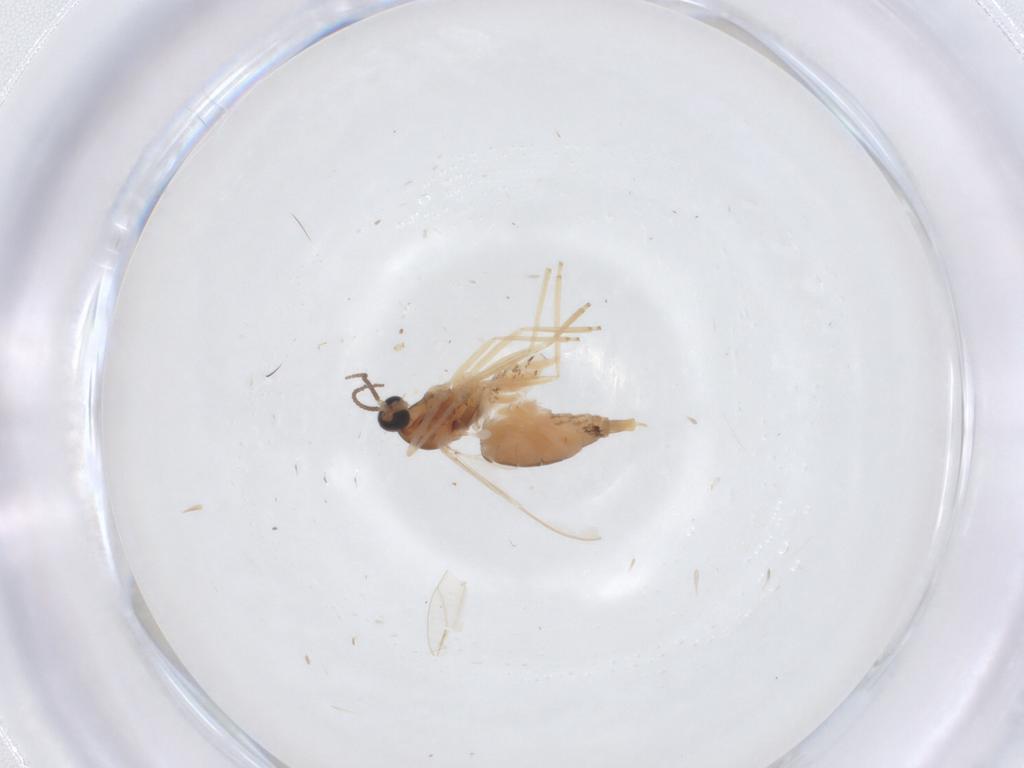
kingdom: Animalia
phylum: Arthropoda
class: Insecta
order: Diptera
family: Cecidomyiidae
